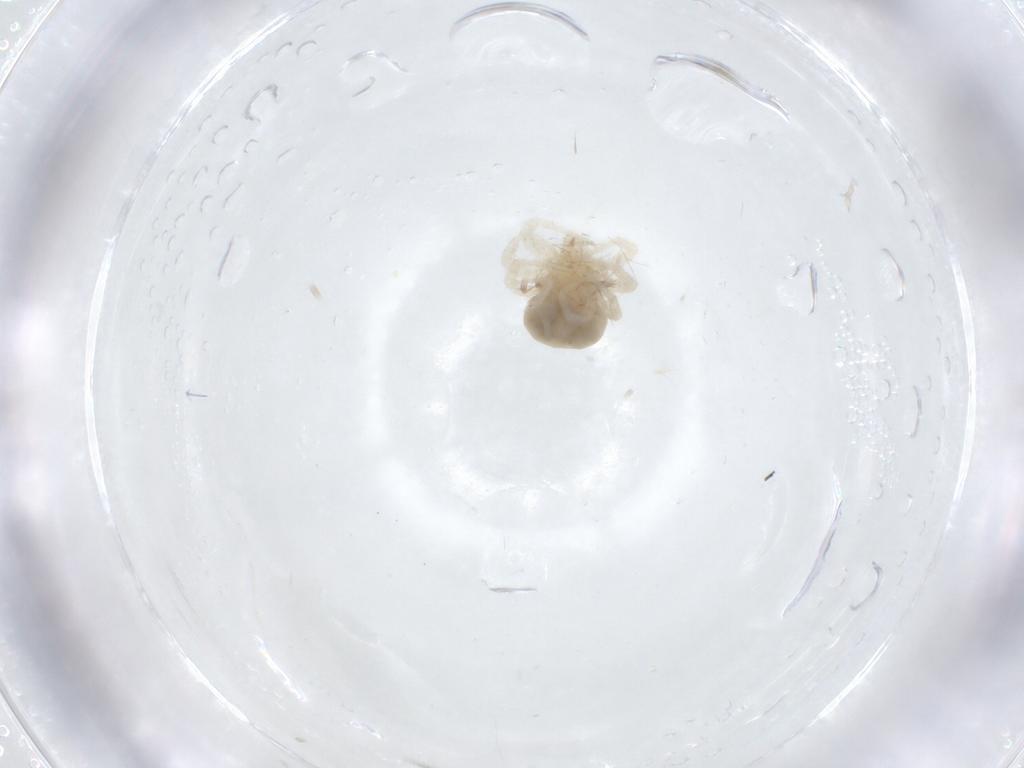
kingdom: Animalia
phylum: Arthropoda
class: Arachnida
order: Trombidiformes
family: Anystidae
